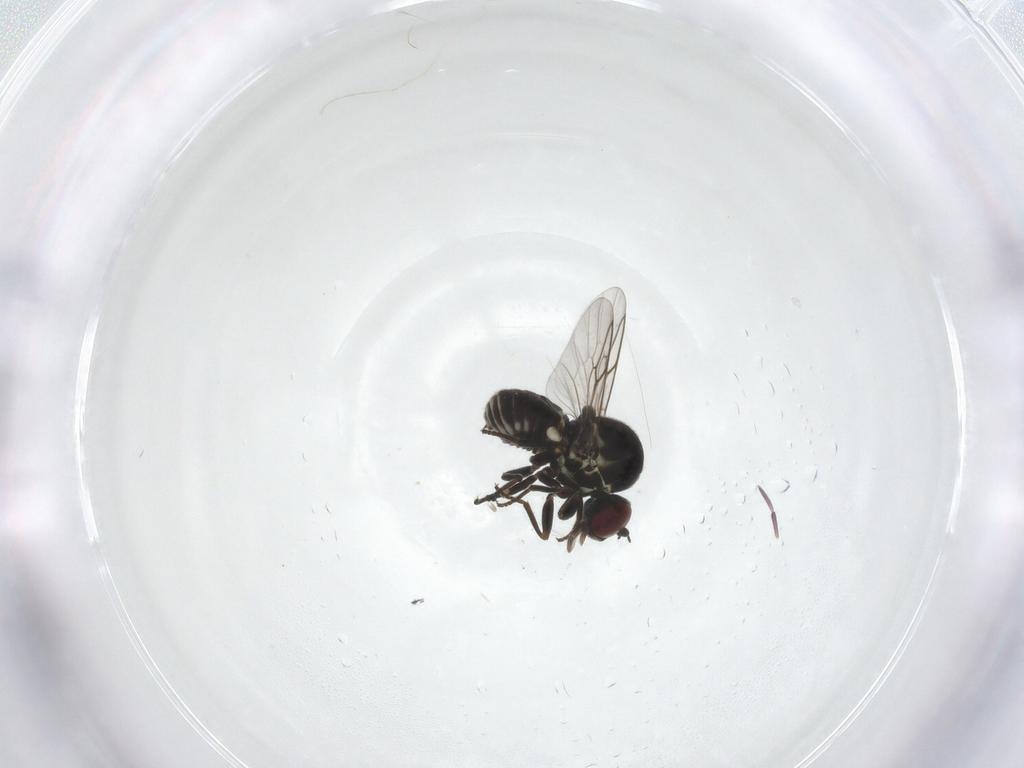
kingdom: Animalia
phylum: Arthropoda
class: Insecta
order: Diptera
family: Mythicomyiidae
